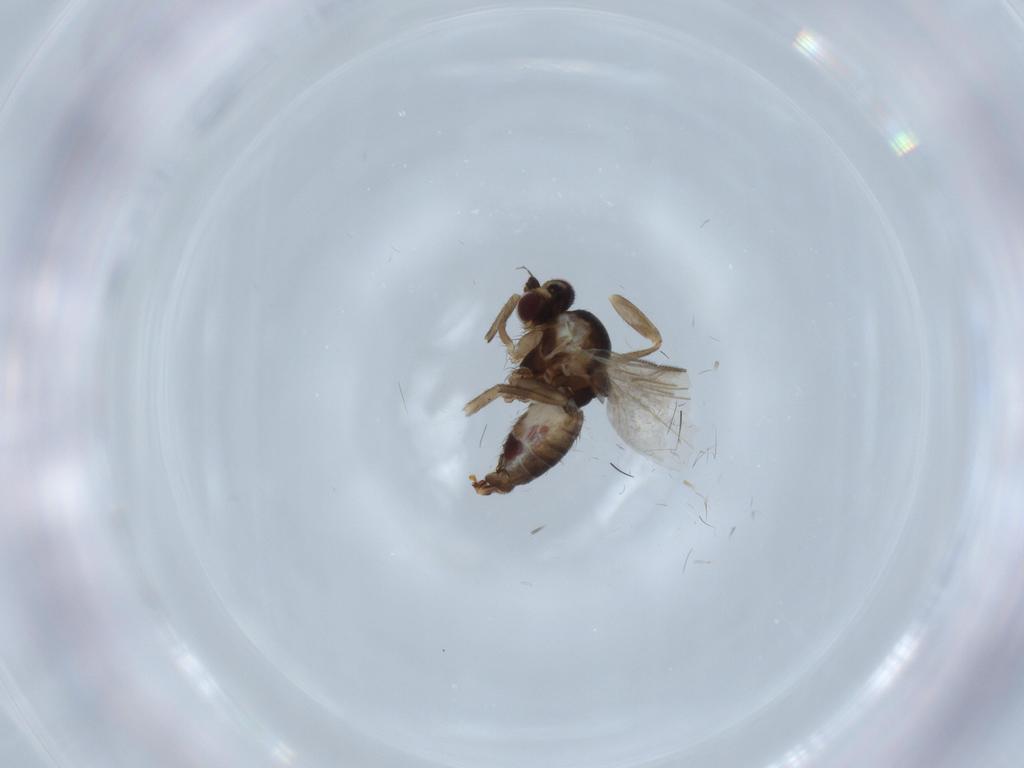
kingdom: Animalia
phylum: Arthropoda
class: Insecta
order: Diptera
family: Agromyzidae
